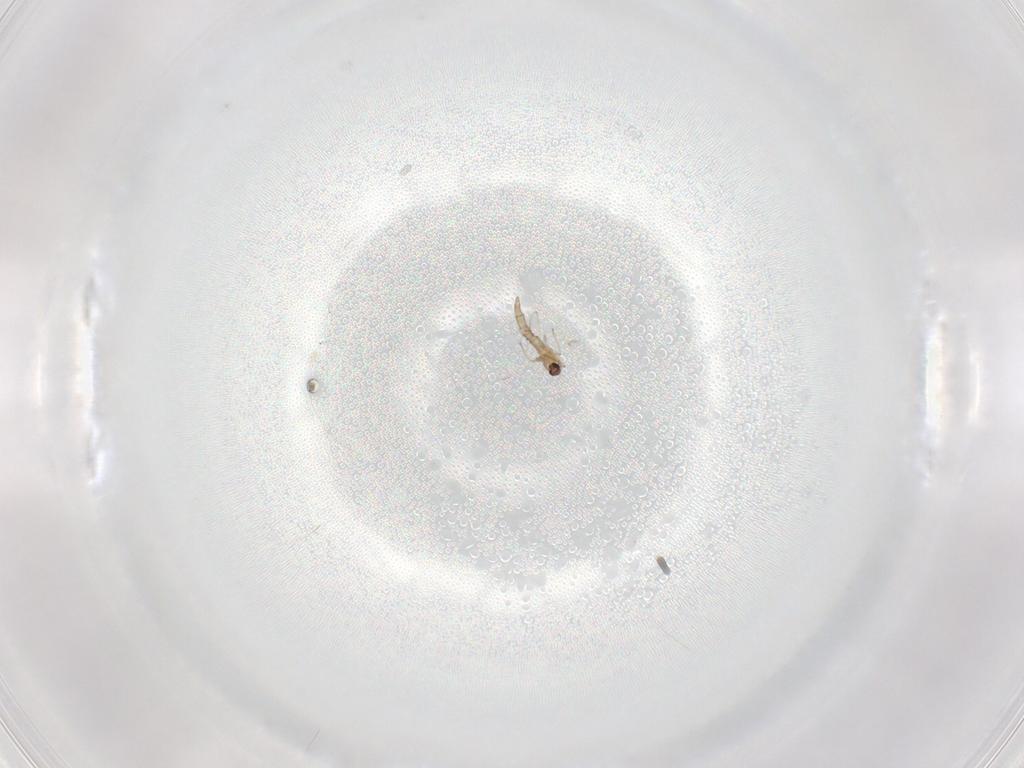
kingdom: Animalia
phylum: Arthropoda
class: Insecta
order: Diptera
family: Cecidomyiidae
